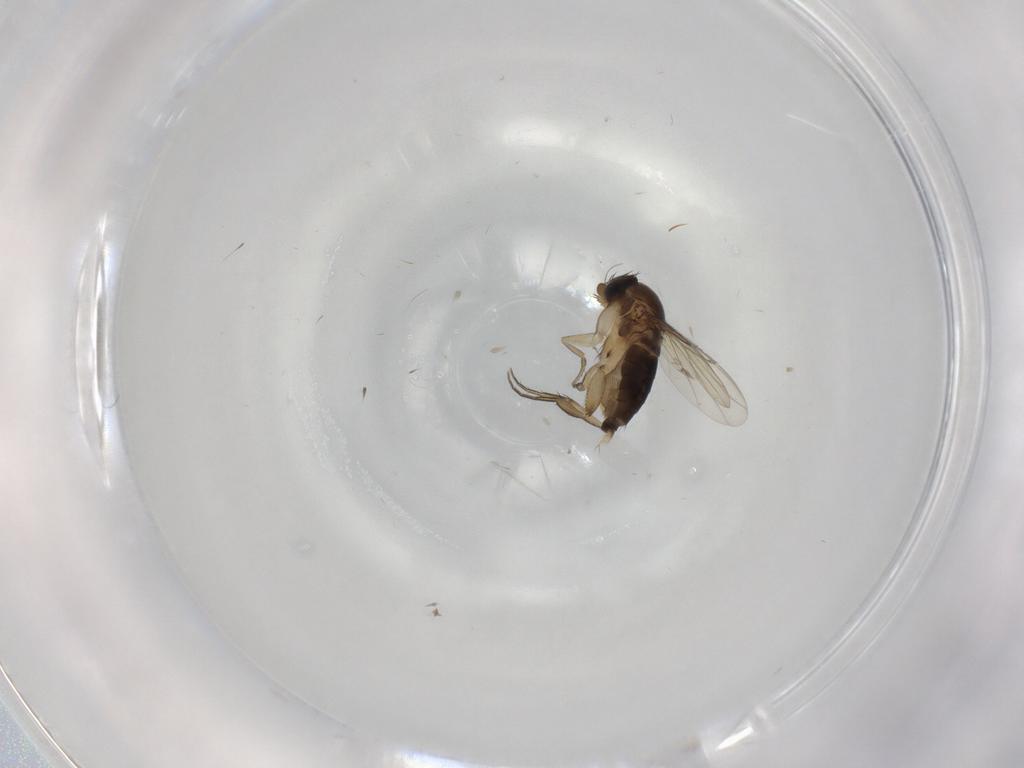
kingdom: Animalia
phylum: Arthropoda
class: Insecta
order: Diptera
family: Phoridae
